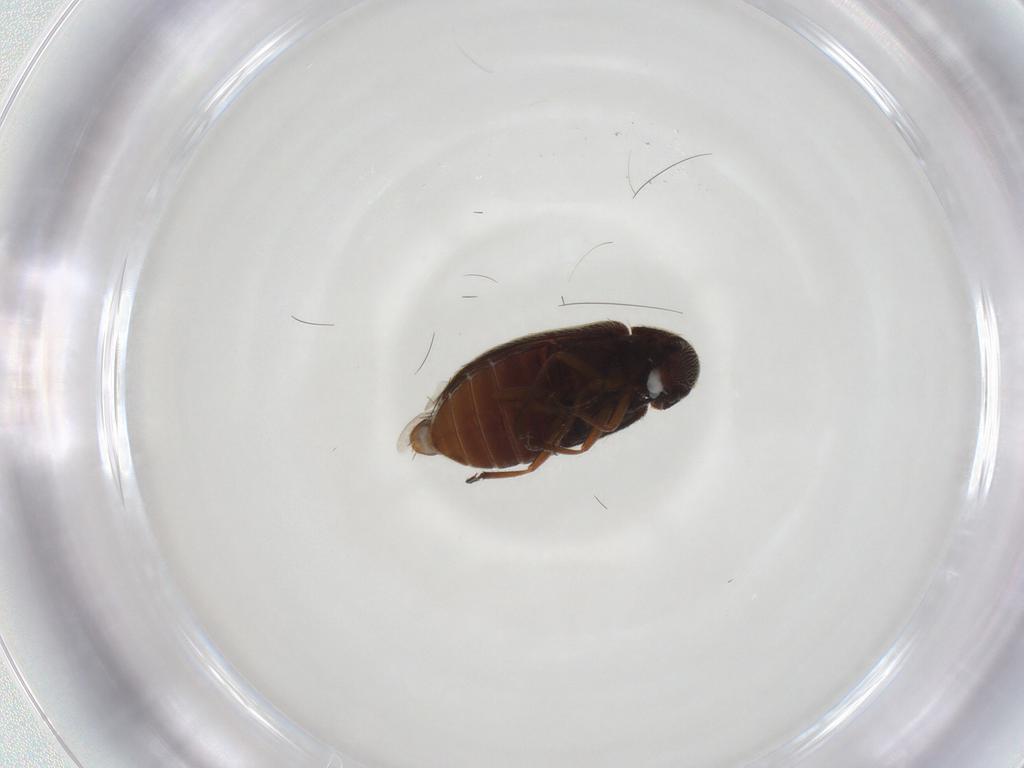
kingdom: Animalia
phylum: Arthropoda
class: Insecta
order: Coleoptera
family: Rhadalidae
